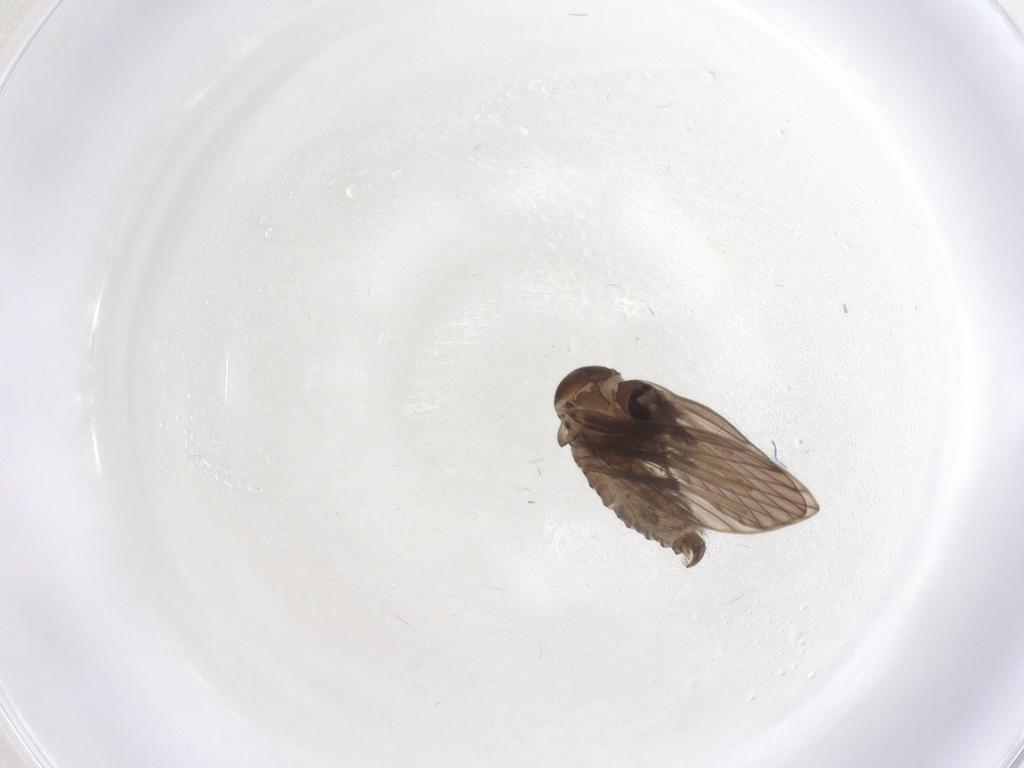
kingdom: Animalia
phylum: Arthropoda
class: Insecta
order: Diptera
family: Psychodidae
